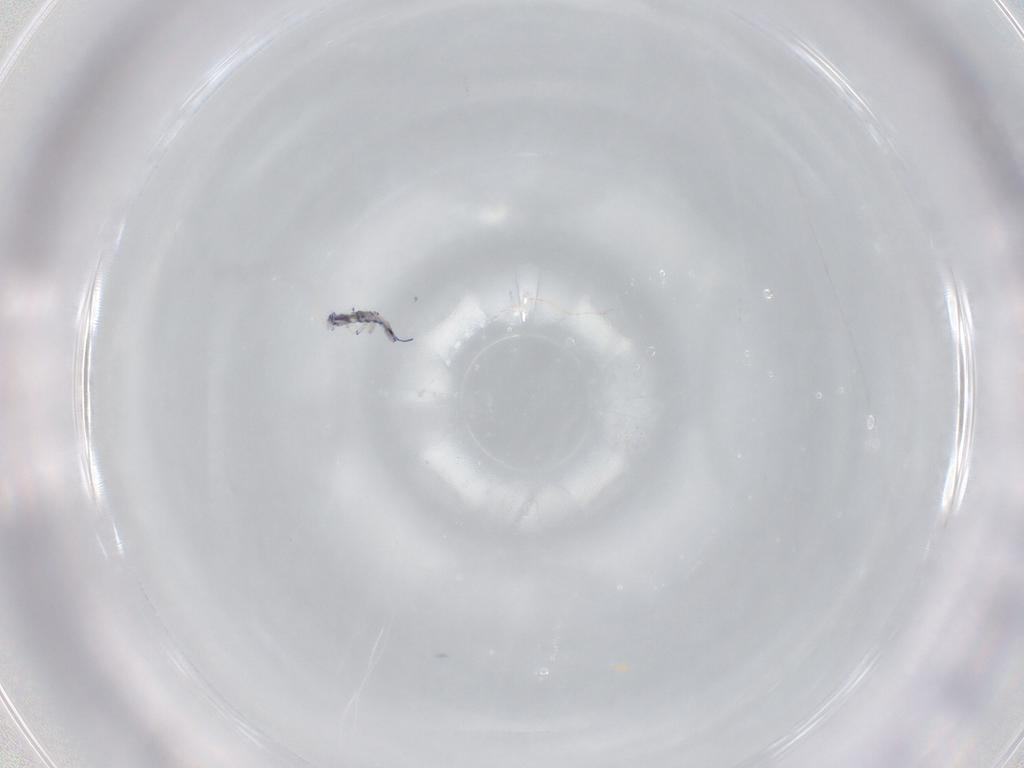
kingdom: Animalia
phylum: Arthropoda
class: Collembola
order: Entomobryomorpha
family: Entomobryidae
